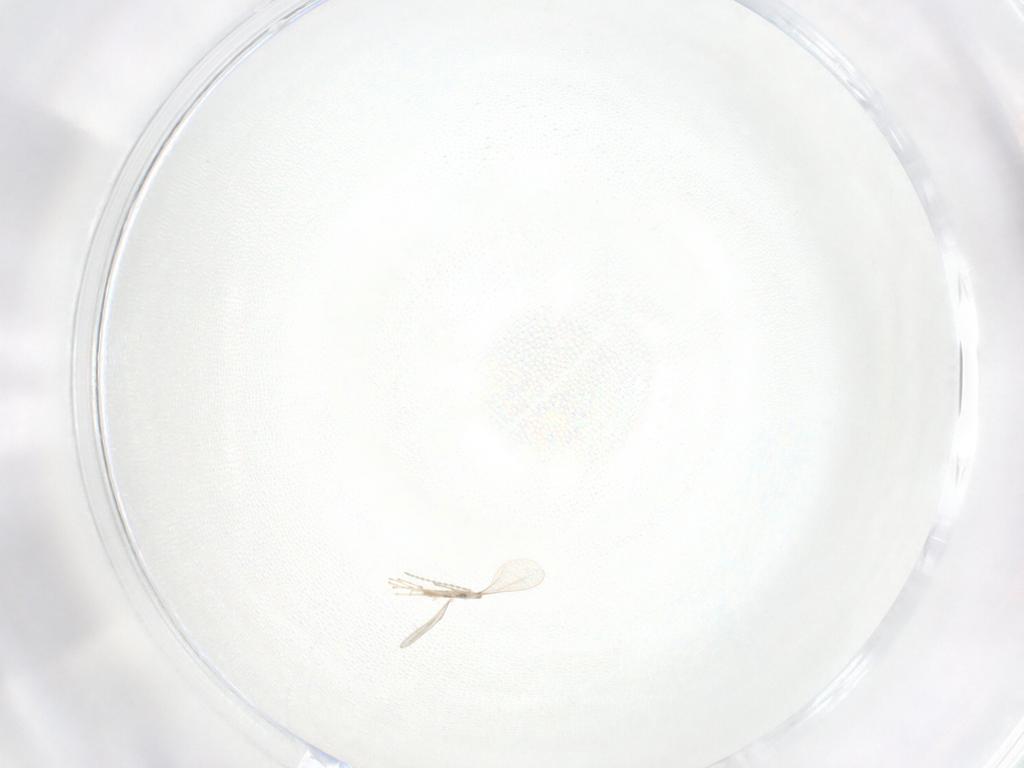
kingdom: Animalia
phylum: Arthropoda
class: Insecta
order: Diptera
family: Cecidomyiidae
